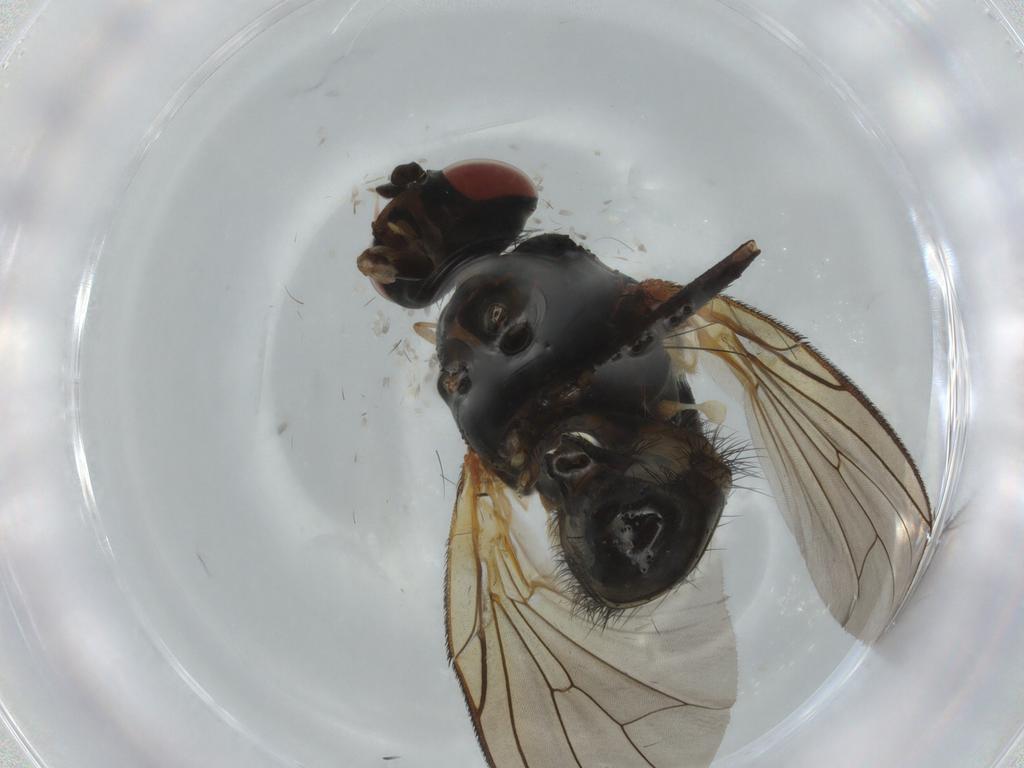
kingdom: Animalia
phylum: Arthropoda
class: Insecta
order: Diptera
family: Anthomyiidae
